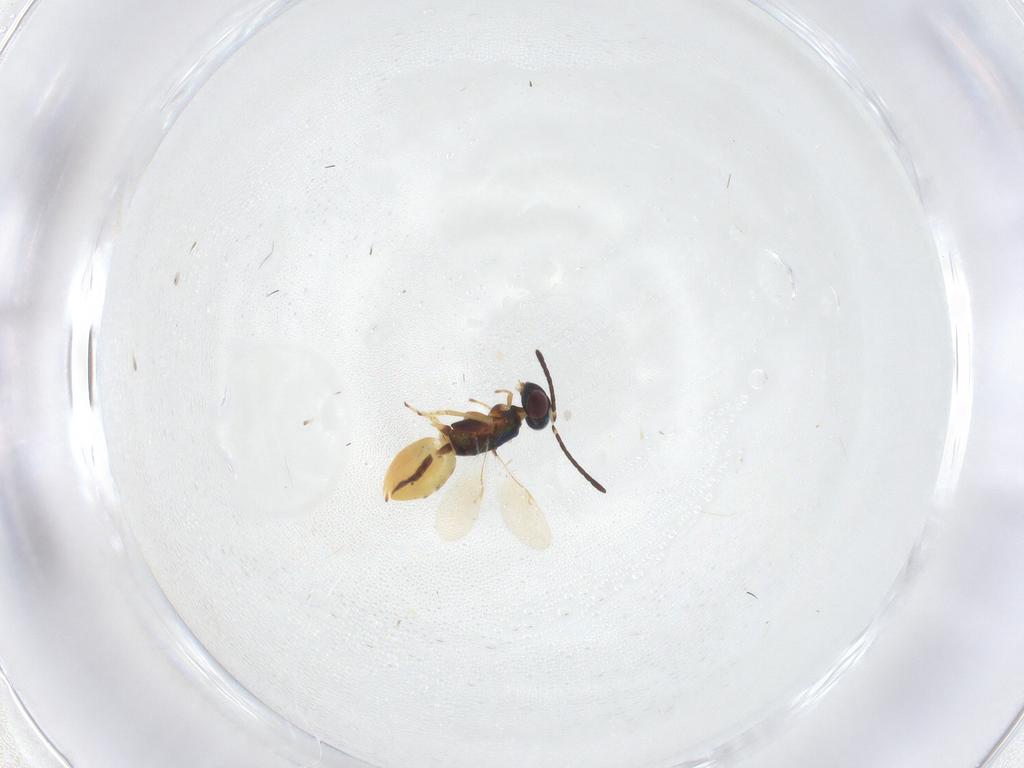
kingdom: Animalia
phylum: Arthropoda
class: Insecta
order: Hymenoptera
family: Encyrtidae
